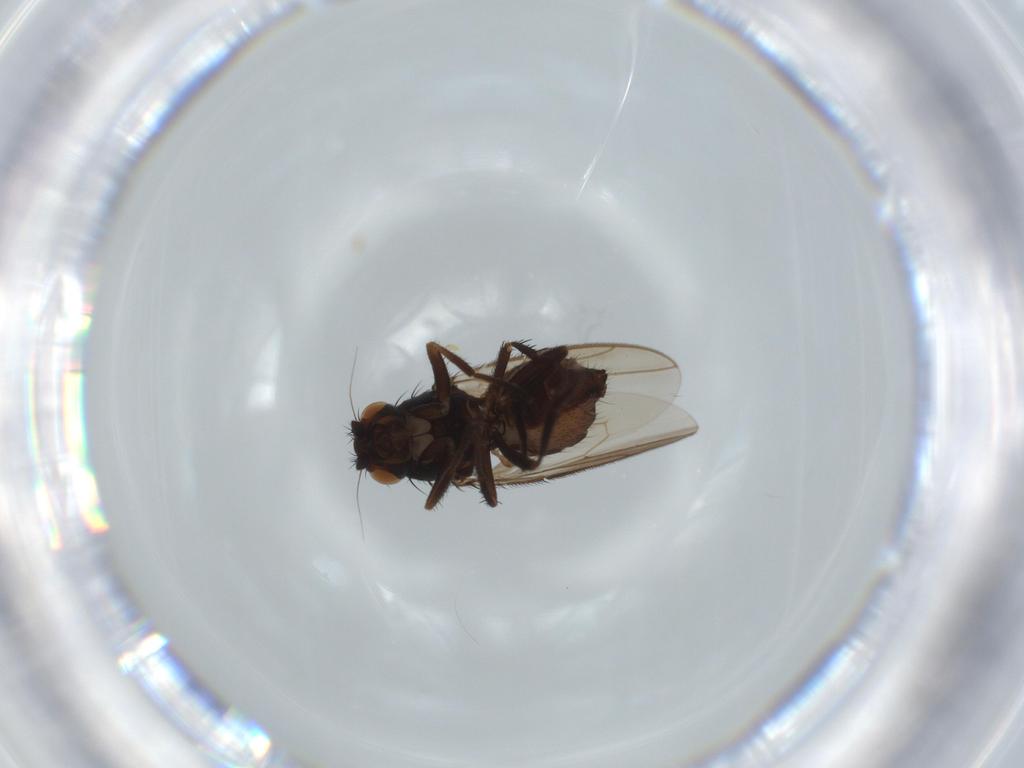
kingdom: Animalia
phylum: Arthropoda
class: Insecta
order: Diptera
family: Sphaeroceridae
